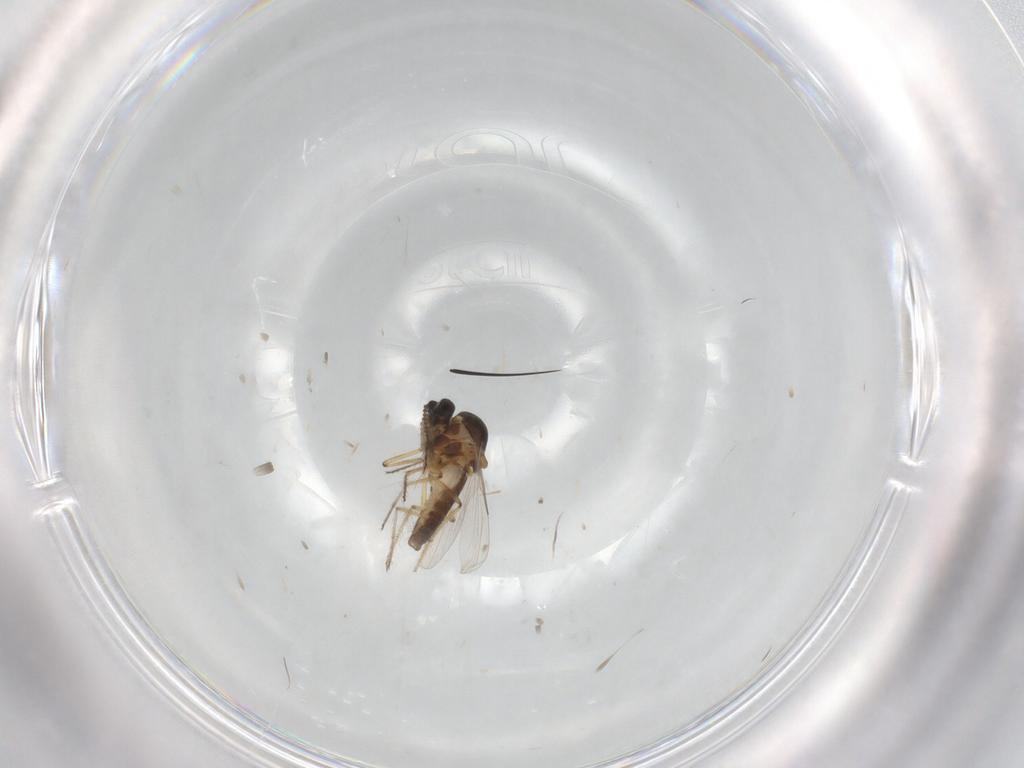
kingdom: Animalia
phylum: Arthropoda
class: Insecta
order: Diptera
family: Ceratopogonidae
